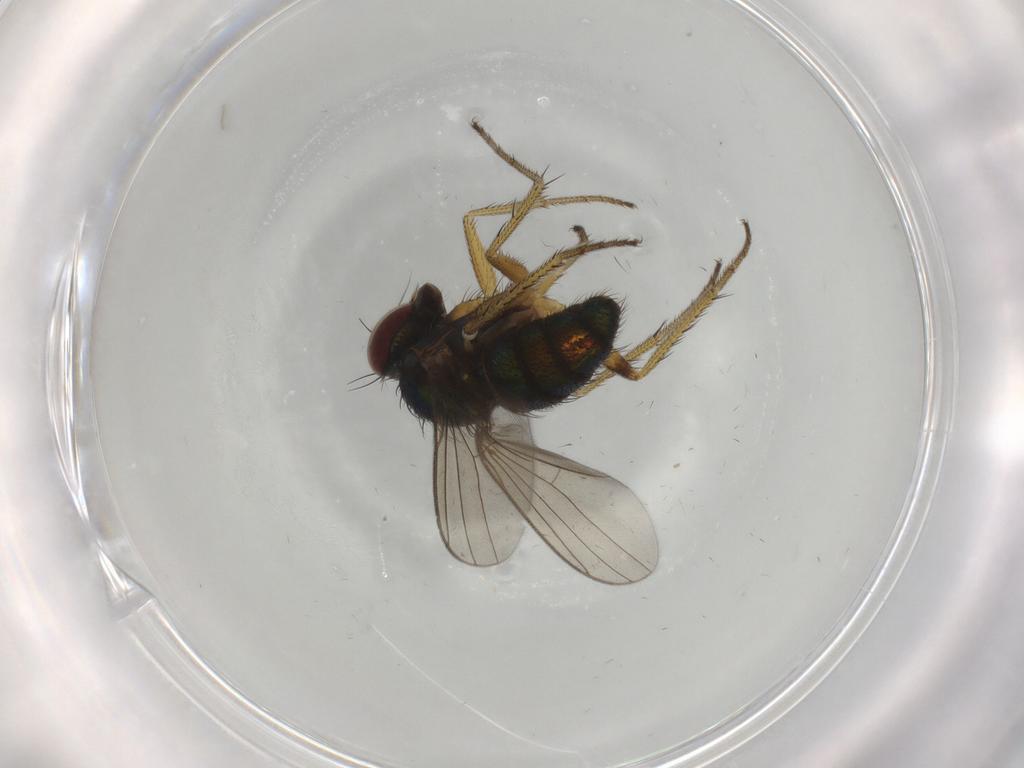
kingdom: Animalia
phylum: Arthropoda
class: Insecta
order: Diptera
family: Dolichopodidae
